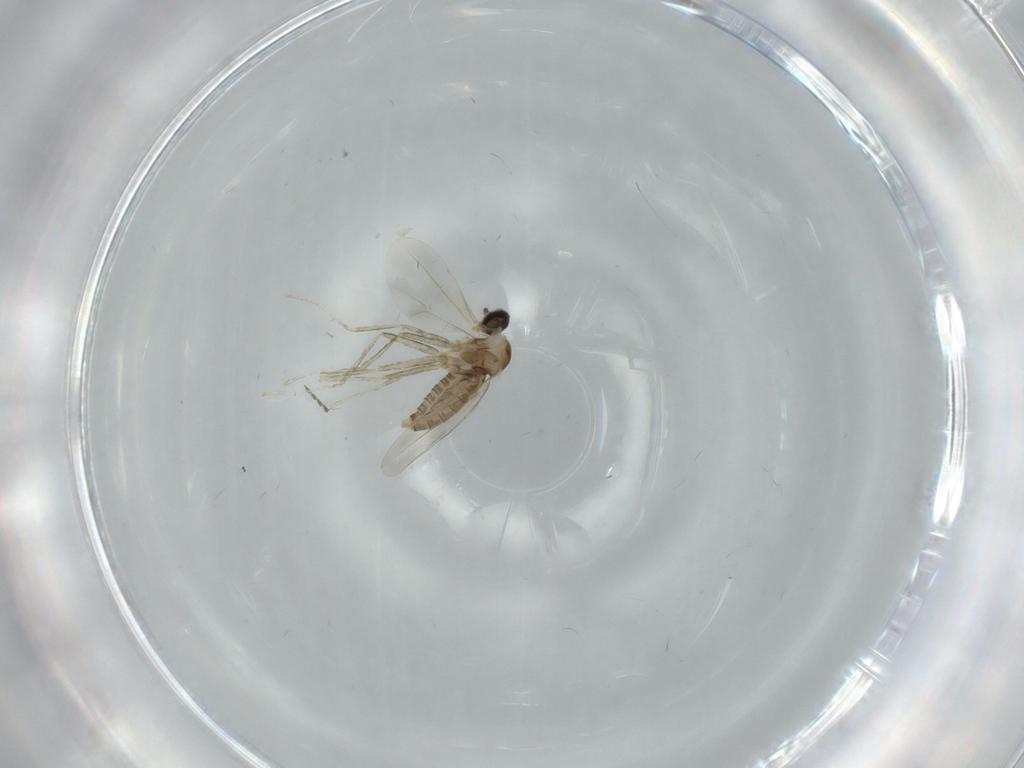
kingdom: Animalia
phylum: Arthropoda
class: Insecta
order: Diptera
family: Cecidomyiidae
